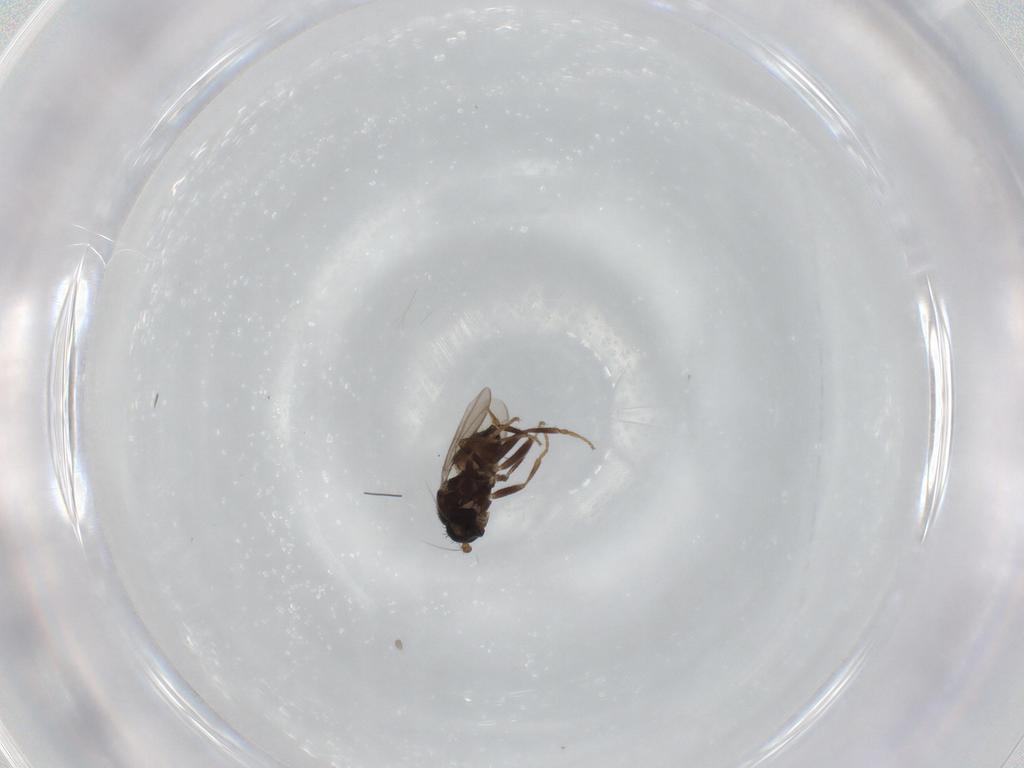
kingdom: Animalia
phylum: Arthropoda
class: Insecta
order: Diptera
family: Sphaeroceridae
